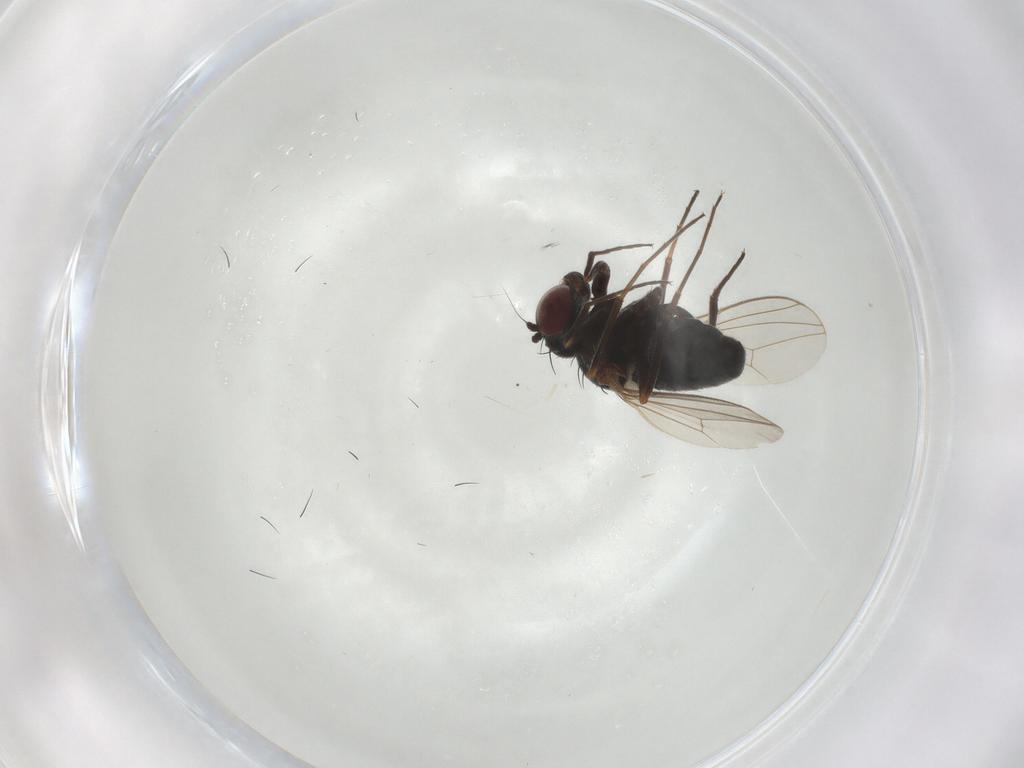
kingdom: Animalia
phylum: Arthropoda
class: Insecta
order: Diptera
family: Dolichopodidae
